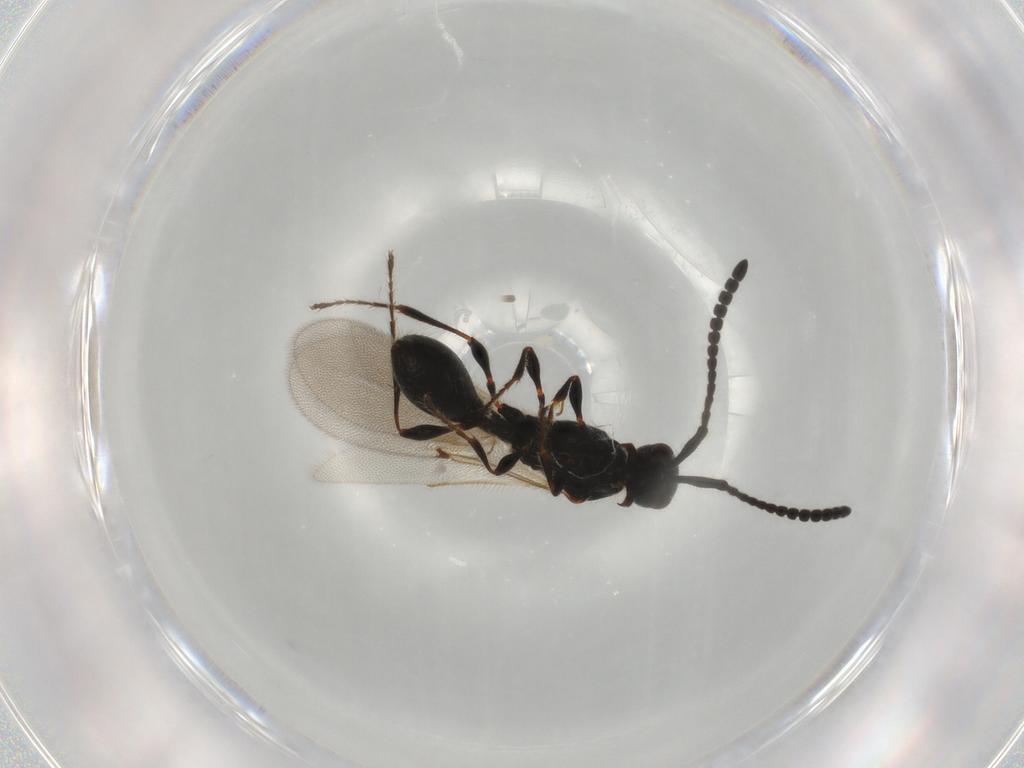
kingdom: Animalia
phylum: Arthropoda
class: Insecta
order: Hymenoptera
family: Diapriidae
